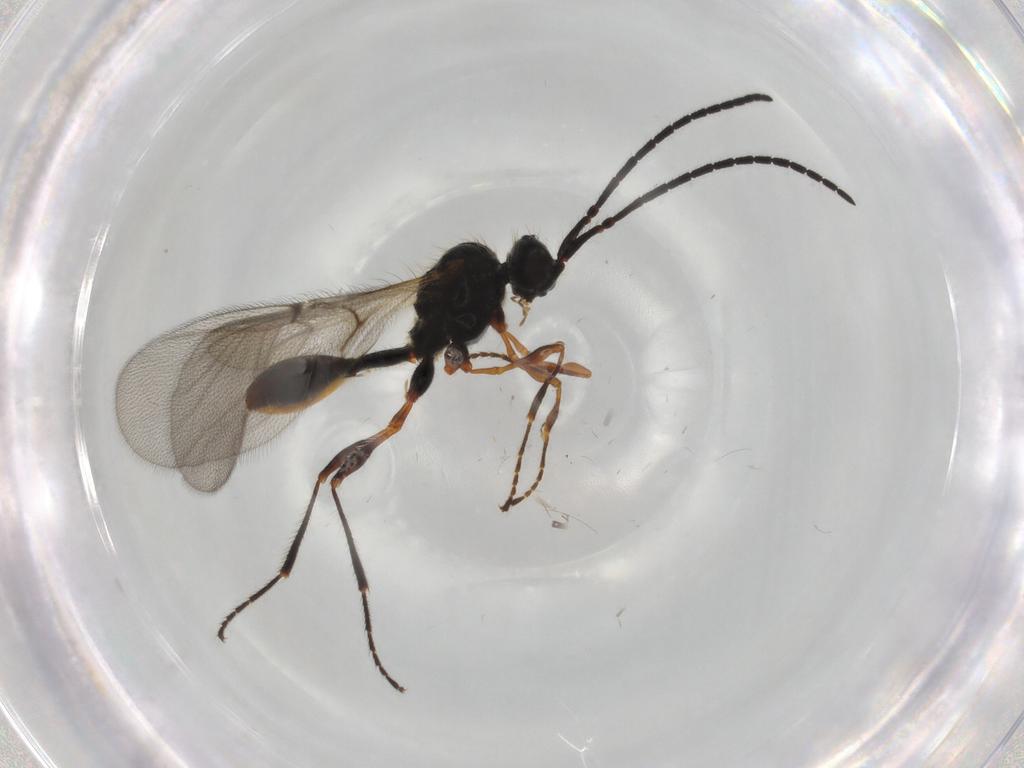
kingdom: Animalia
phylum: Arthropoda
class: Insecta
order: Hymenoptera
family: Diapriidae
